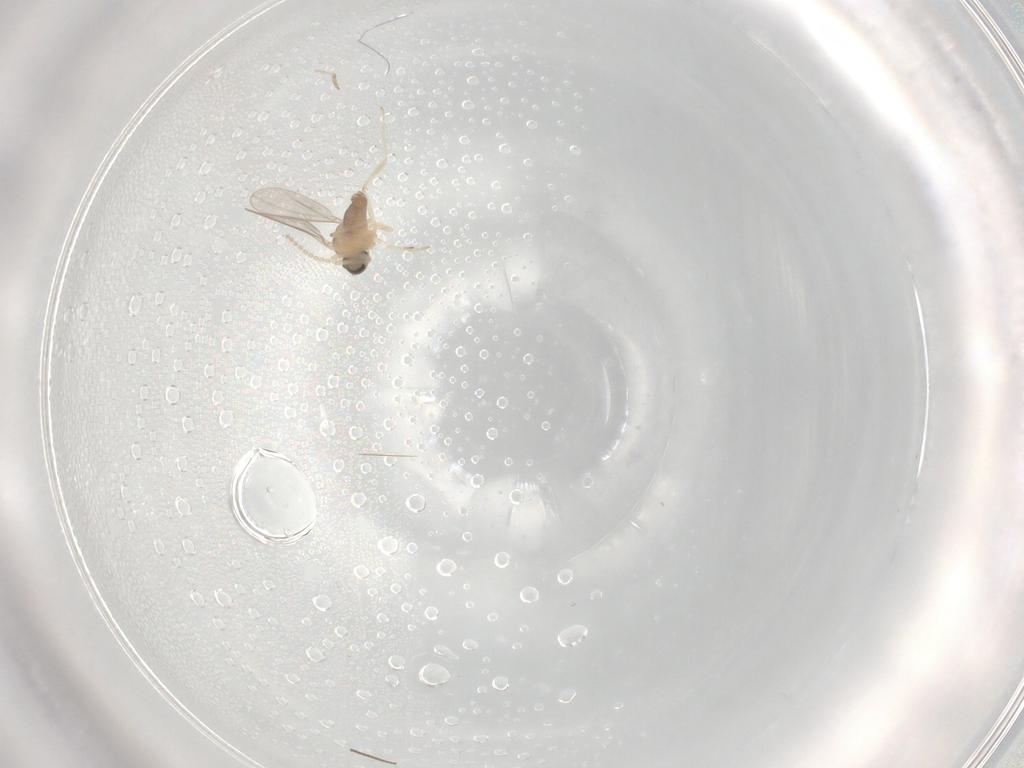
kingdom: Animalia
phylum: Arthropoda
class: Insecta
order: Diptera
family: Cecidomyiidae
